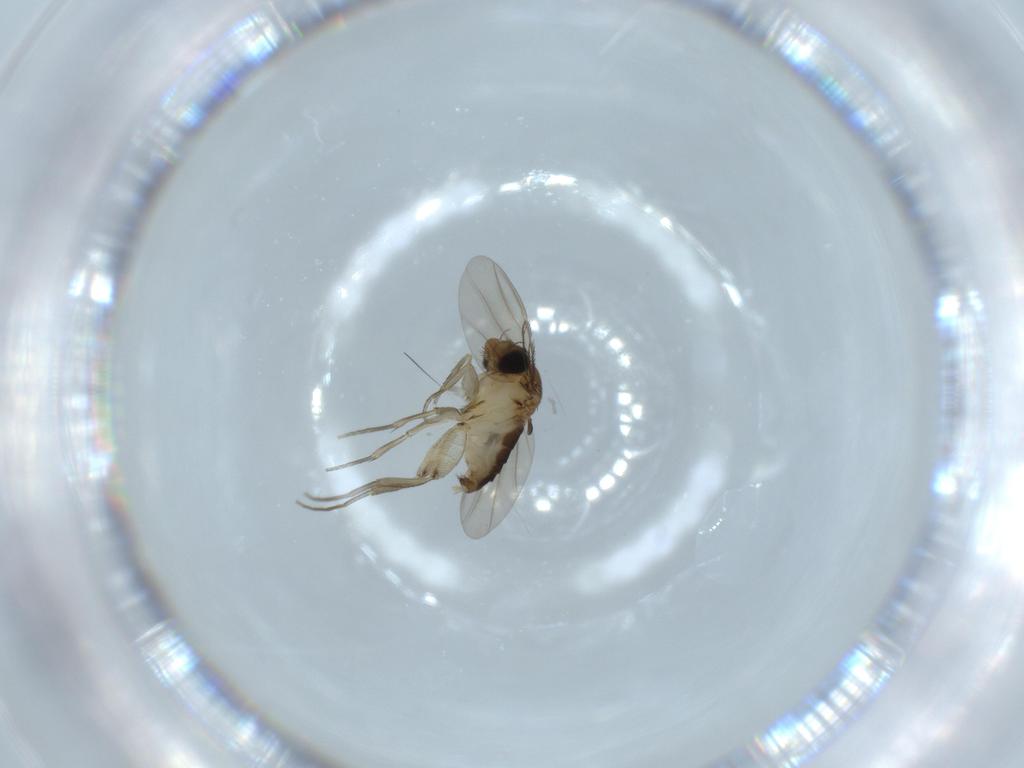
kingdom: Animalia
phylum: Arthropoda
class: Insecta
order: Diptera
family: Phoridae
